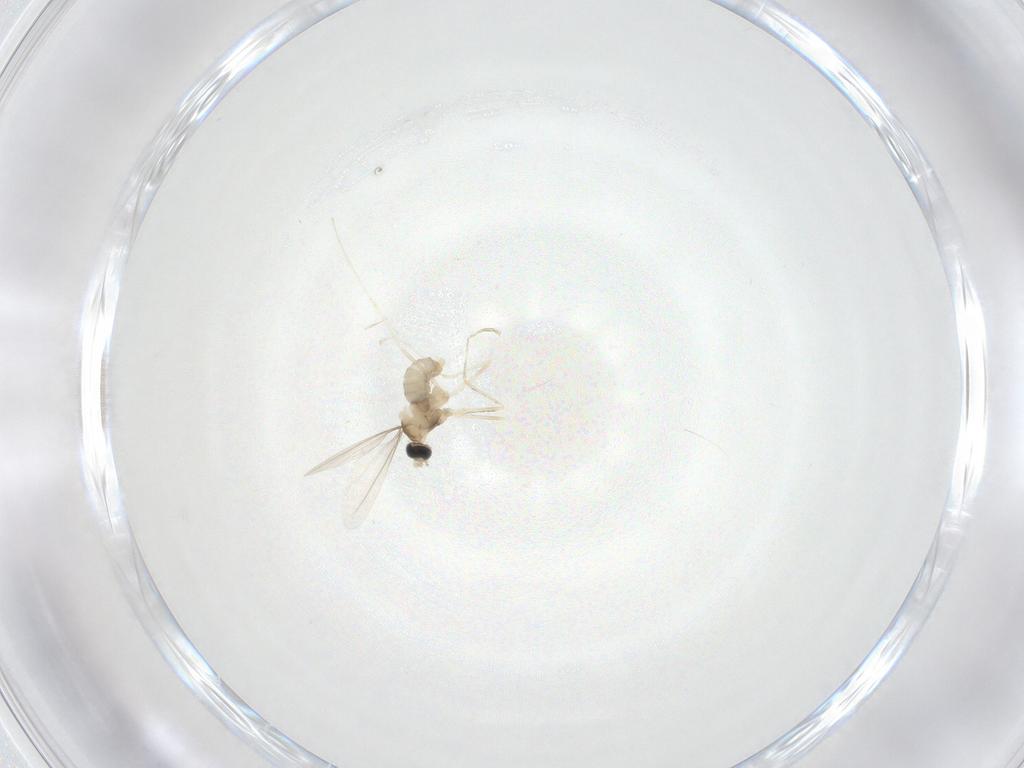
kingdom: Animalia
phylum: Arthropoda
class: Insecta
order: Diptera
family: Cecidomyiidae
